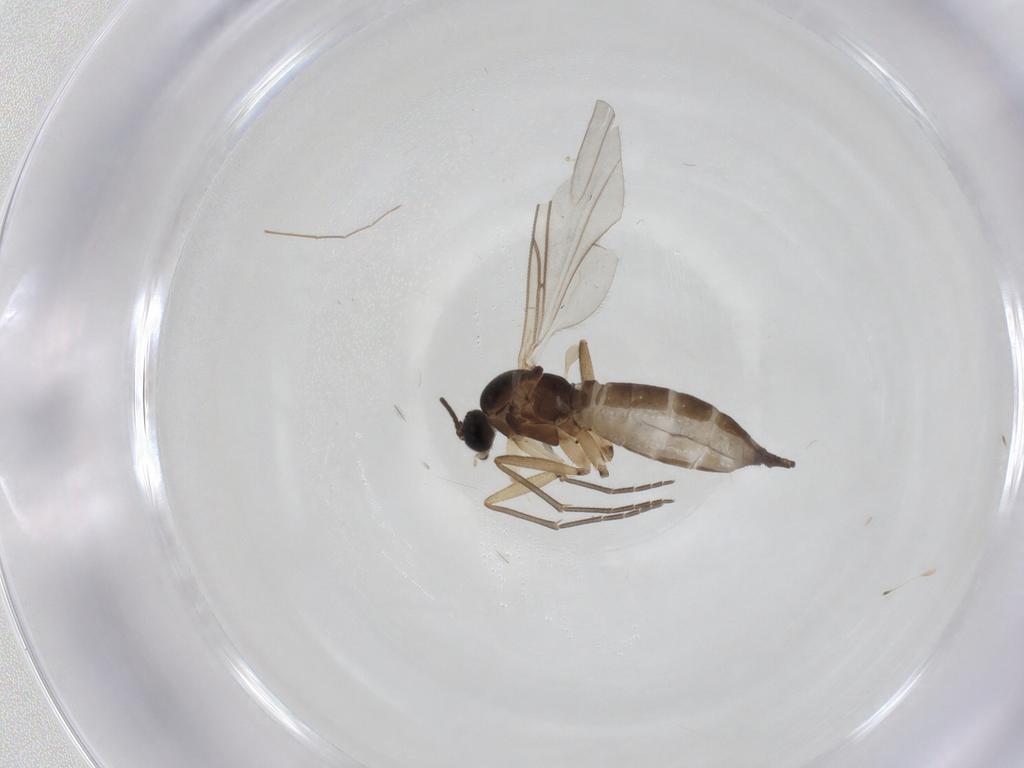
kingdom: Animalia
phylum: Arthropoda
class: Insecta
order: Diptera
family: Sciaridae
